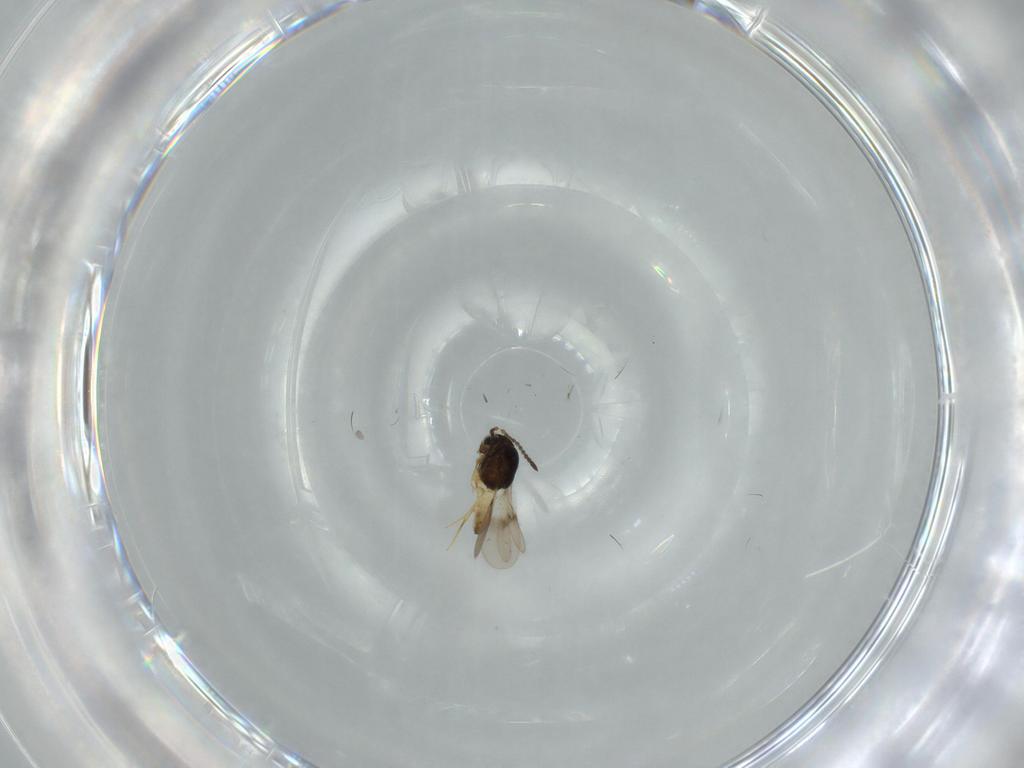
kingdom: Animalia
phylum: Arthropoda
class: Insecta
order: Hymenoptera
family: Scelionidae
